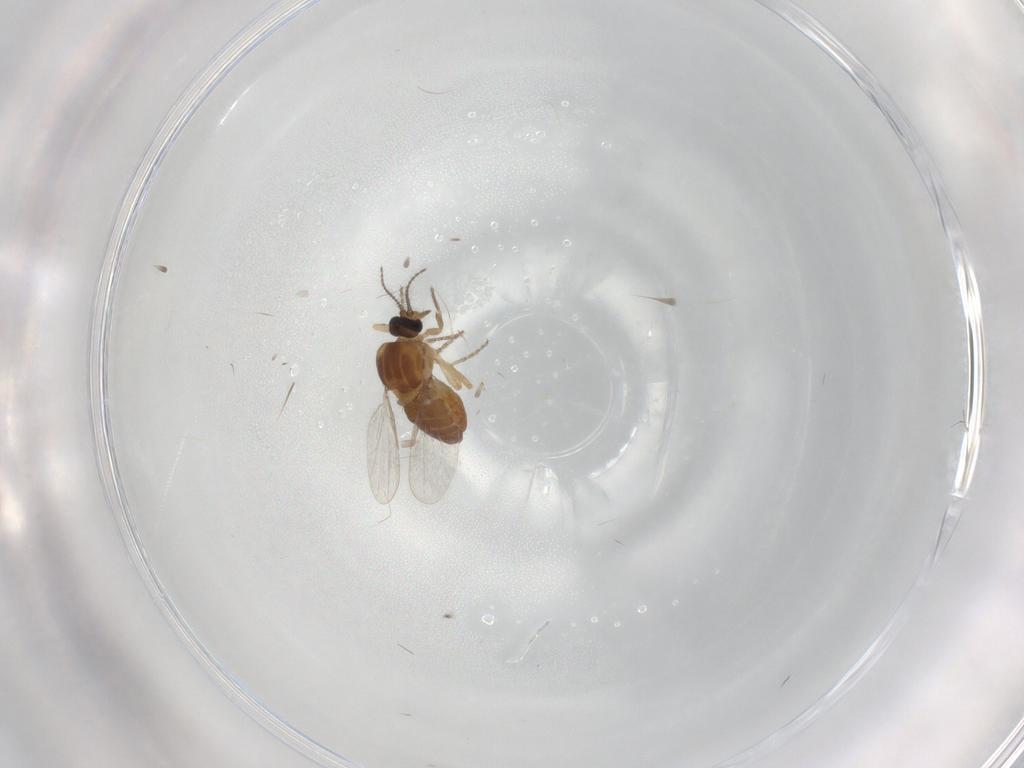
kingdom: Animalia
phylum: Arthropoda
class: Insecta
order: Diptera
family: Ceratopogonidae
